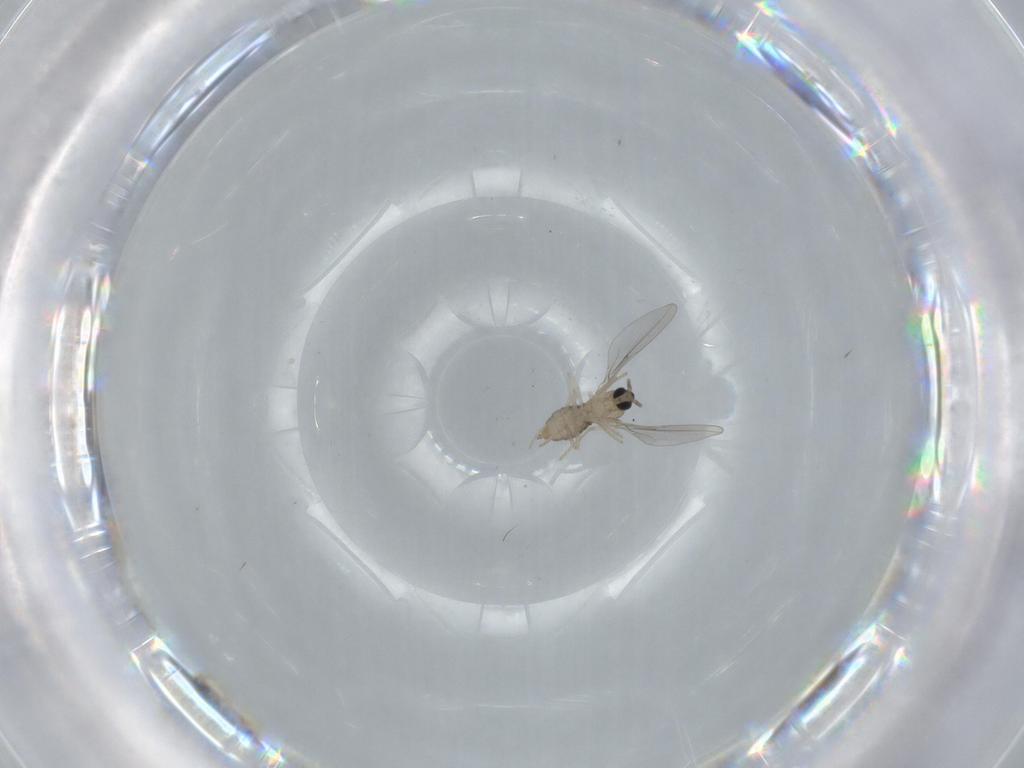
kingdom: Animalia
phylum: Arthropoda
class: Insecta
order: Diptera
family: Cecidomyiidae
